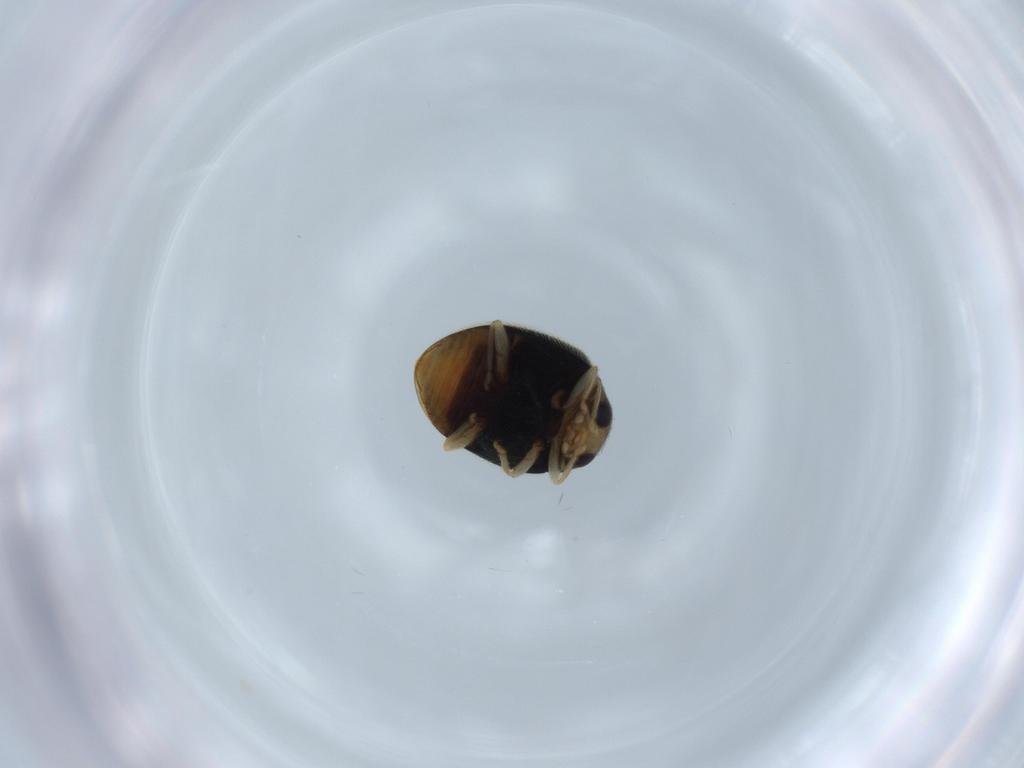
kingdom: Animalia
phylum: Arthropoda
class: Insecta
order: Coleoptera
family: Coccinellidae
